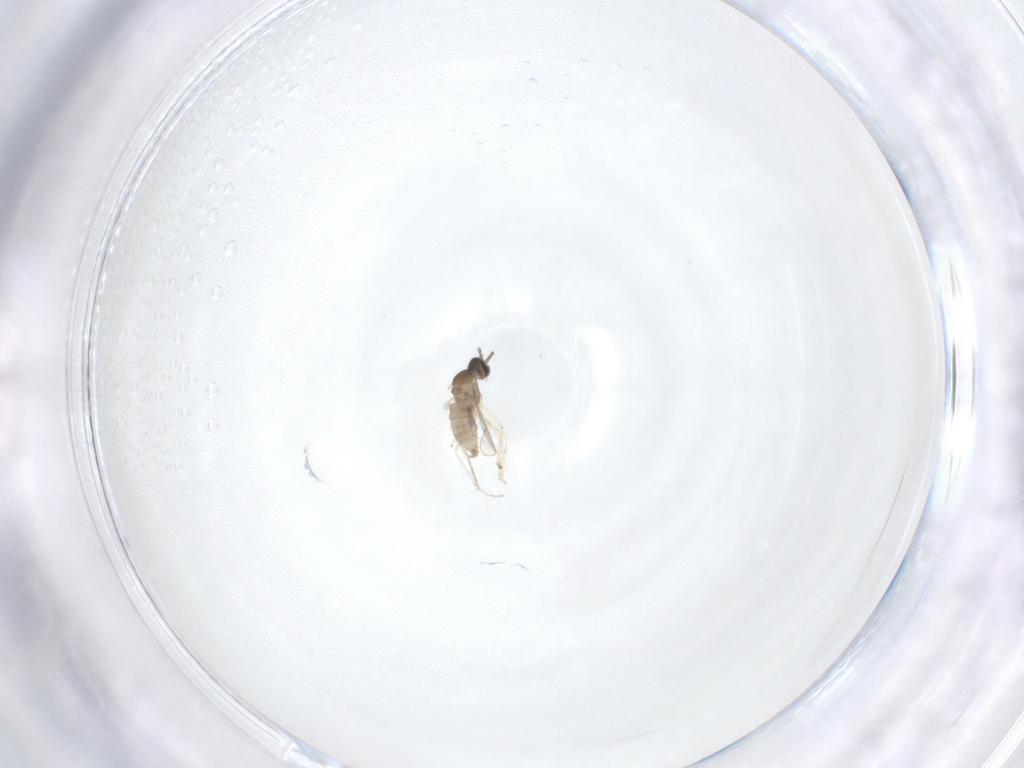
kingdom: Animalia
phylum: Arthropoda
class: Insecta
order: Diptera
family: Cecidomyiidae
